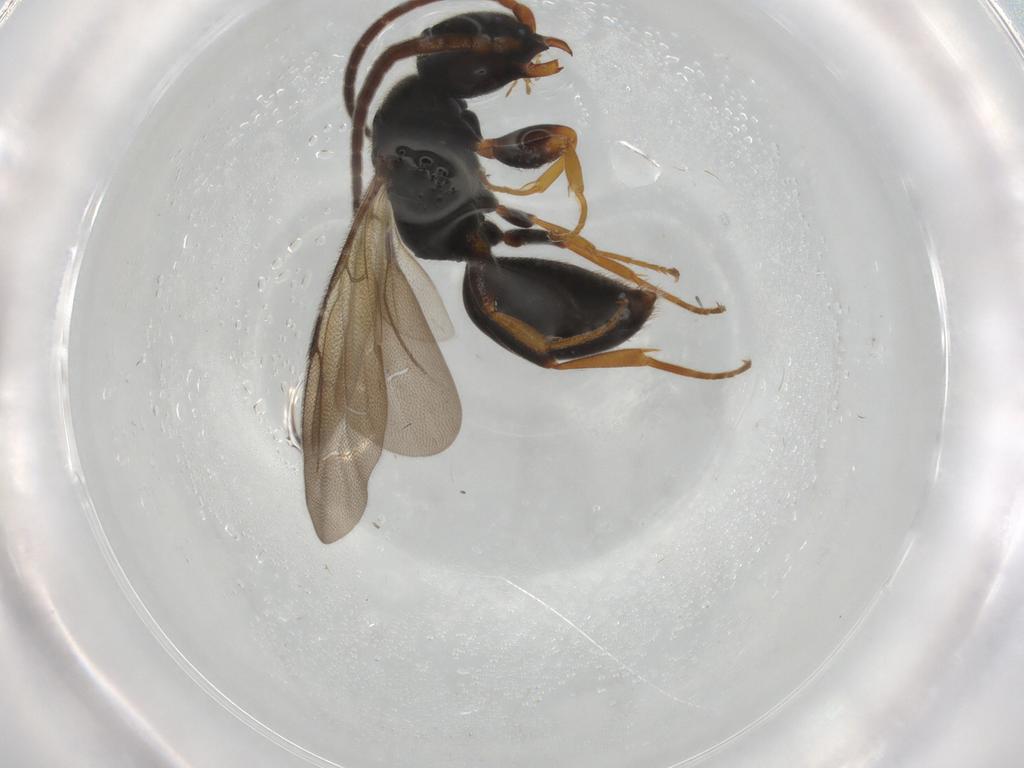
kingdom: Animalia
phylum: Arthropoda
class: Insecta
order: Hymenoptera
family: Bethylidae
